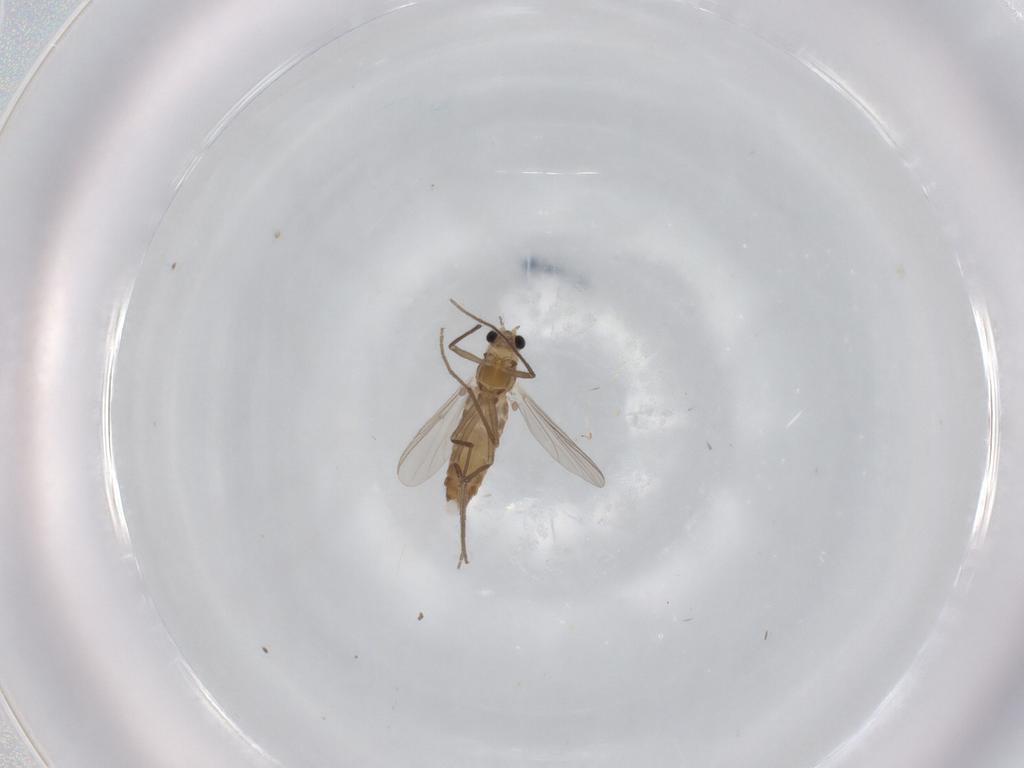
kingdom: Animalia
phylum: Arthropoda
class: Insecta
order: Diptera
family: Chironomidae
